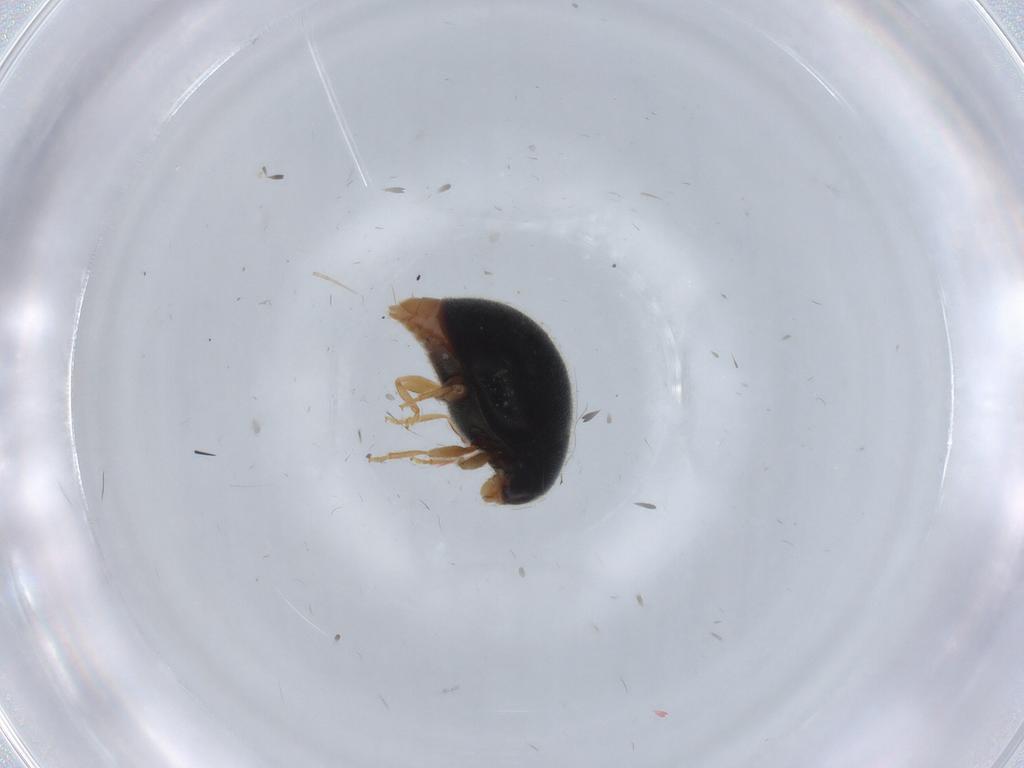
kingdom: Animalia
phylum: Arthropoda
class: Insecta
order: Coleoptera
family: Coccinellidae
